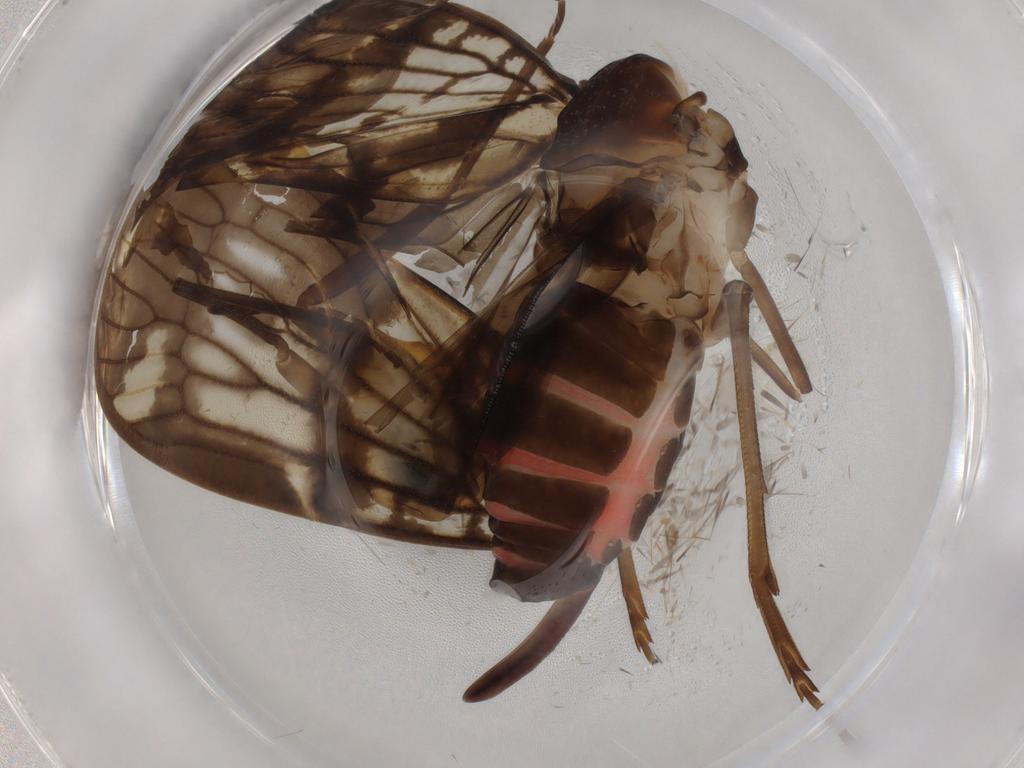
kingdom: Animalia
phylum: Arthropoda
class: Insecta
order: Hemiptera
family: Cixiidae
